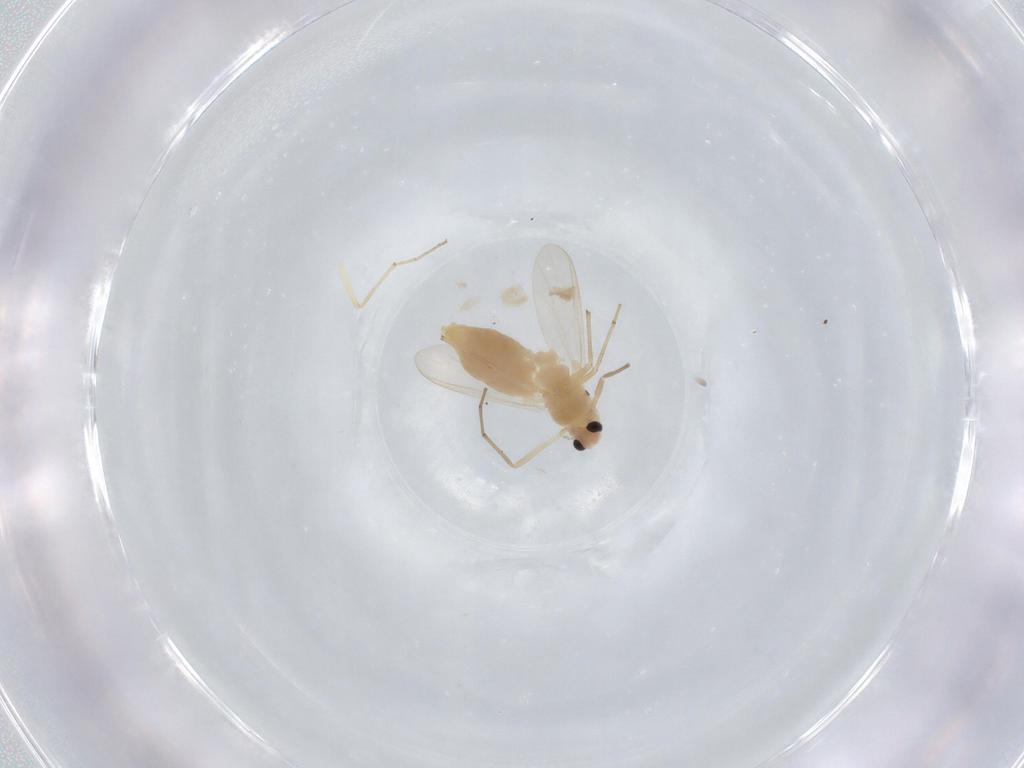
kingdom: Animalia
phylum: Arthropoda
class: Insecta
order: Diptera
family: Chironomidae
